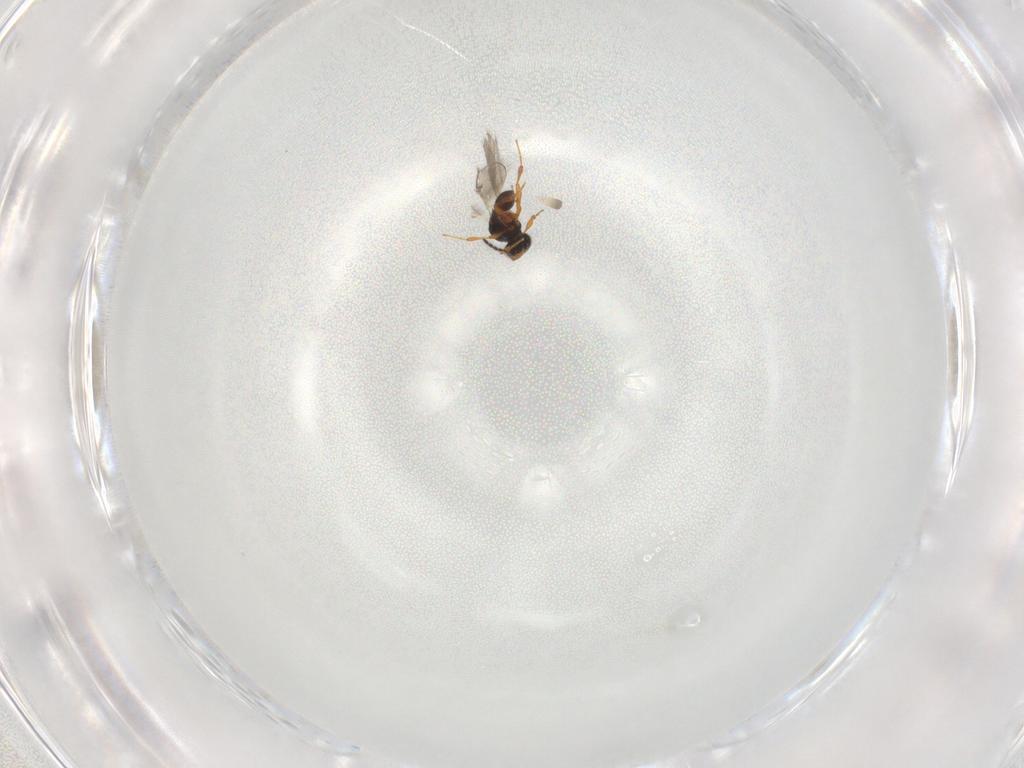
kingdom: Animalia
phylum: Arthropoda
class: Insecta
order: Hymenoptera
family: Platygastridae
